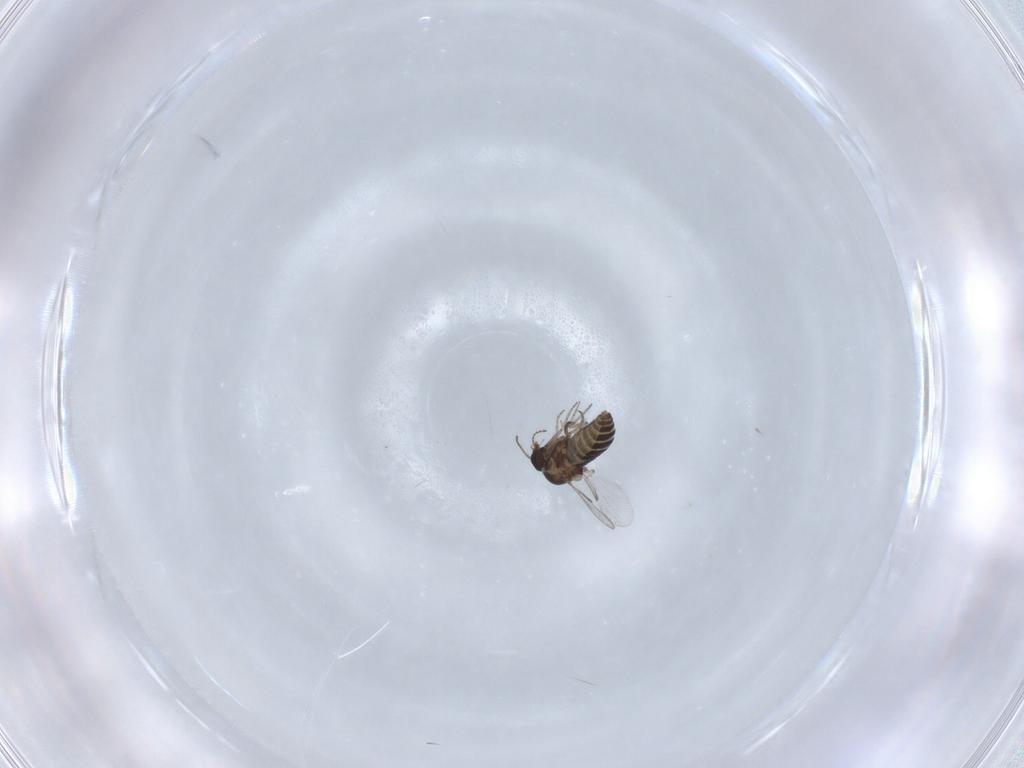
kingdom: Animalia
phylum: Arthropoda
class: Insecta
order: Diptera
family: Ceratopogonidae
